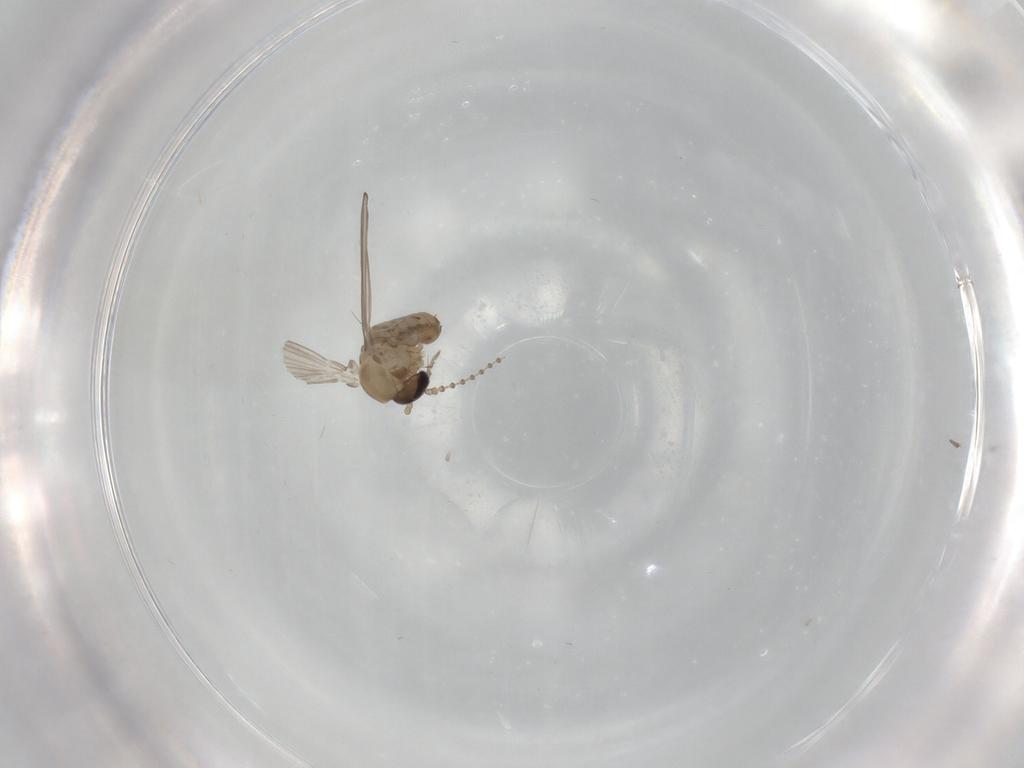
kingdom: Animalia
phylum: Arthropoda
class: Insecta
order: Diptera
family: Psychodidae
